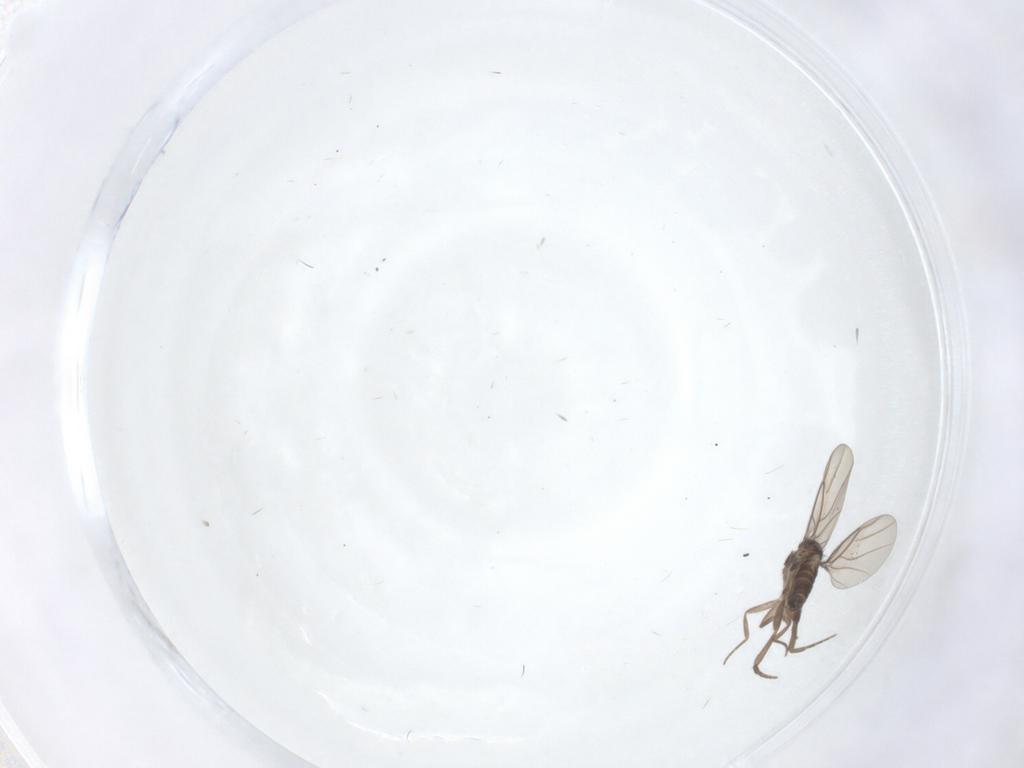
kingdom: Animalia
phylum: Arthropoda
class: Insecta
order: Diptera
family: Phoridae
